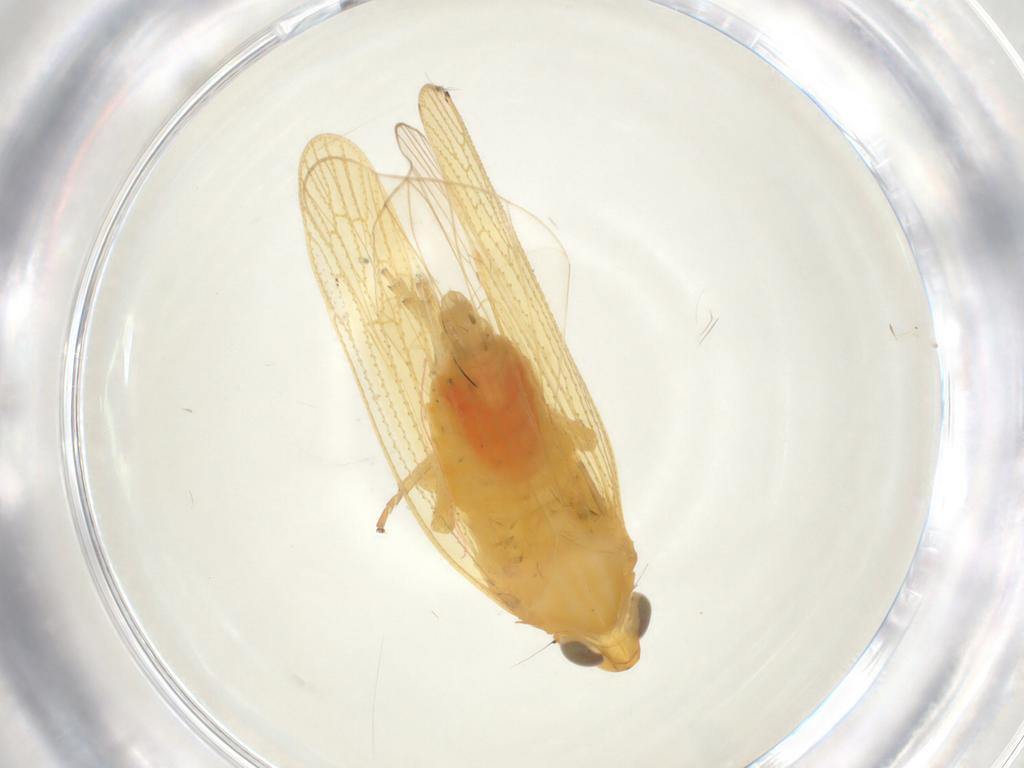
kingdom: Animalia
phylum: Arthropoda
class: Insecta
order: Hemiptera
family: Cixiidae
